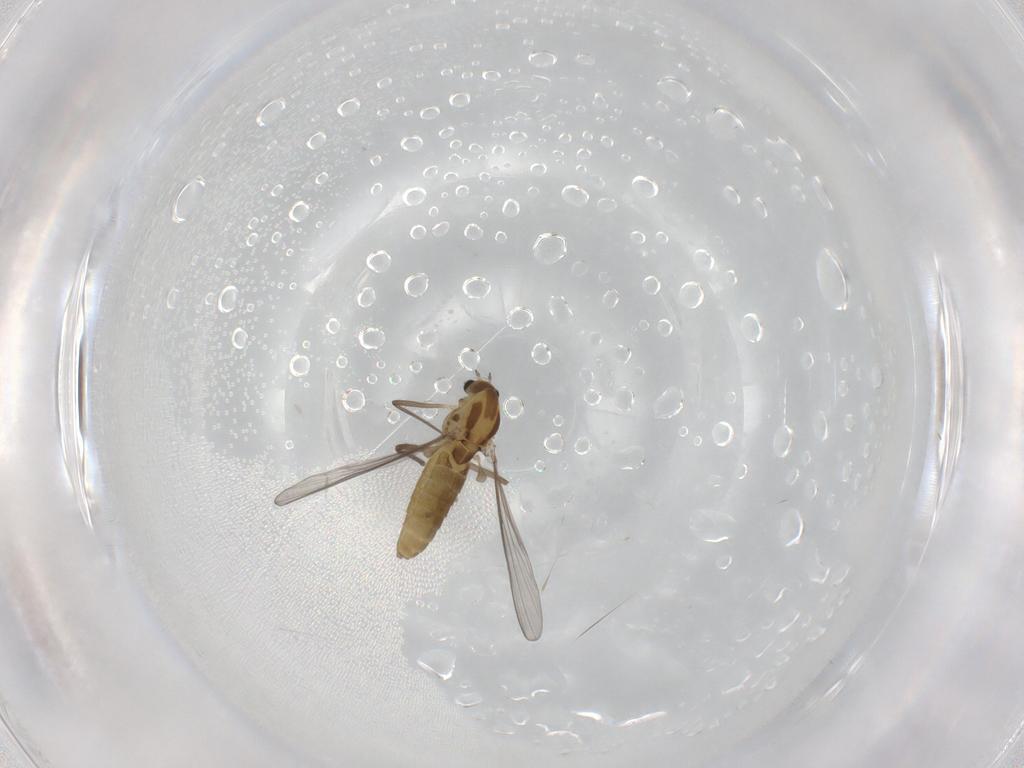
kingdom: Animalia
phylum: Arthropoda
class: Insecta
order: Diptera
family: Chironomidae
